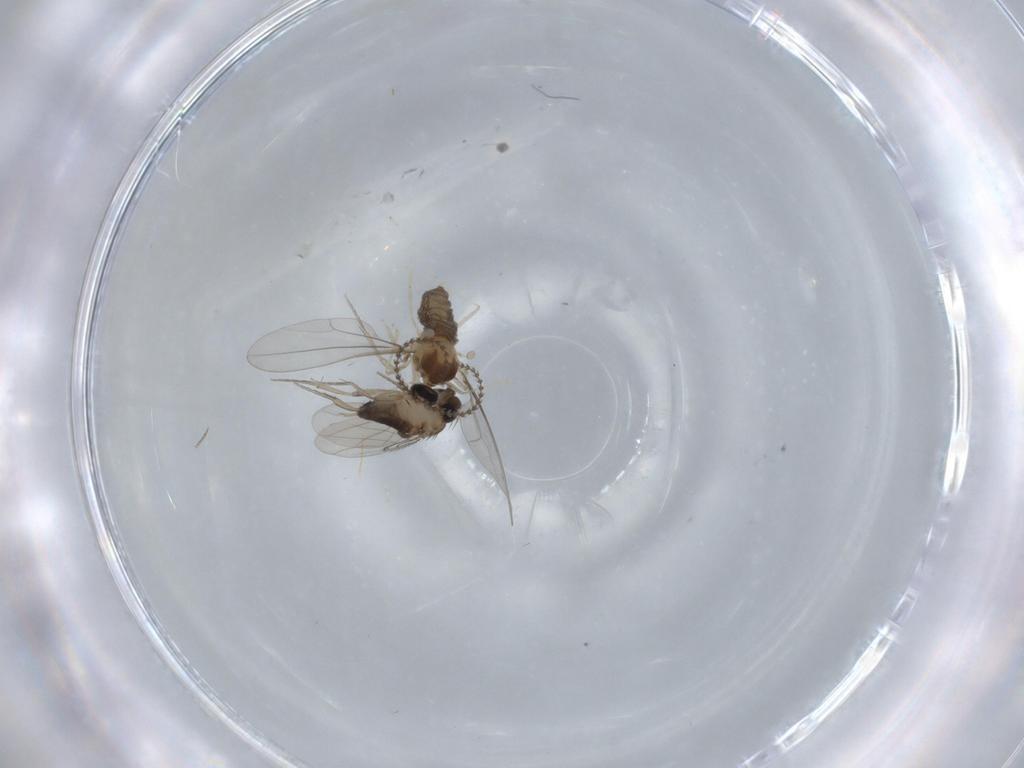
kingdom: Animalia
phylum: Arthropoda
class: Insecta
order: Diptera
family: Phoridae
